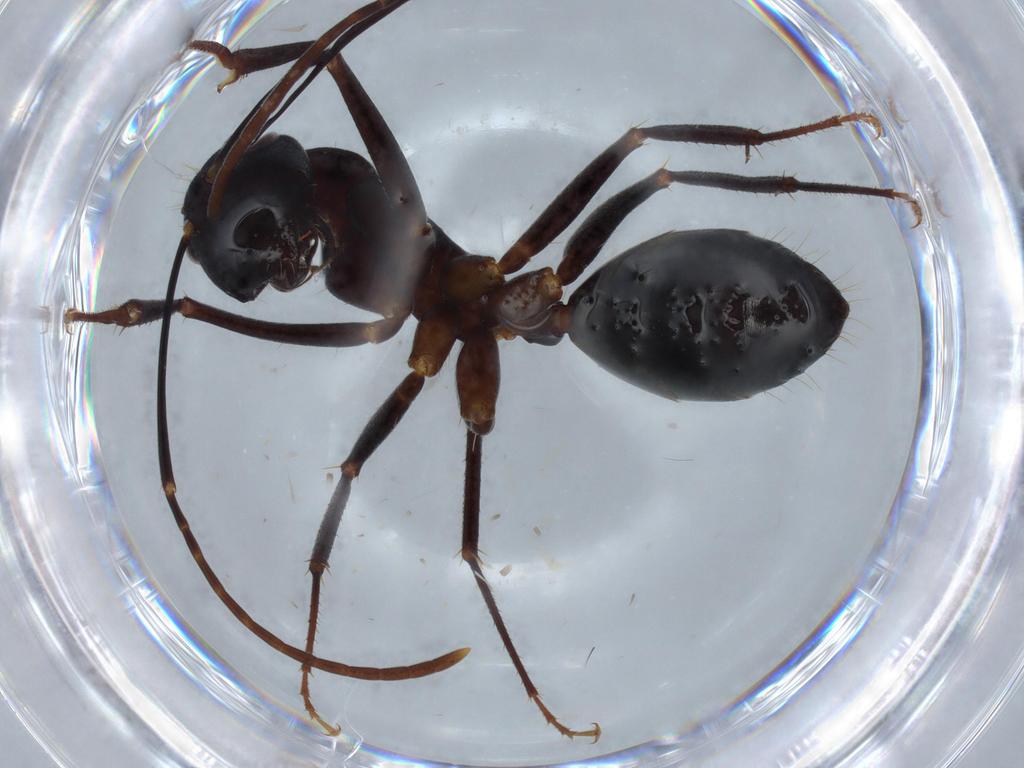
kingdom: Animalia
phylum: Arthropoda
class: Insecta
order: Hymenoptera
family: Formicidae
